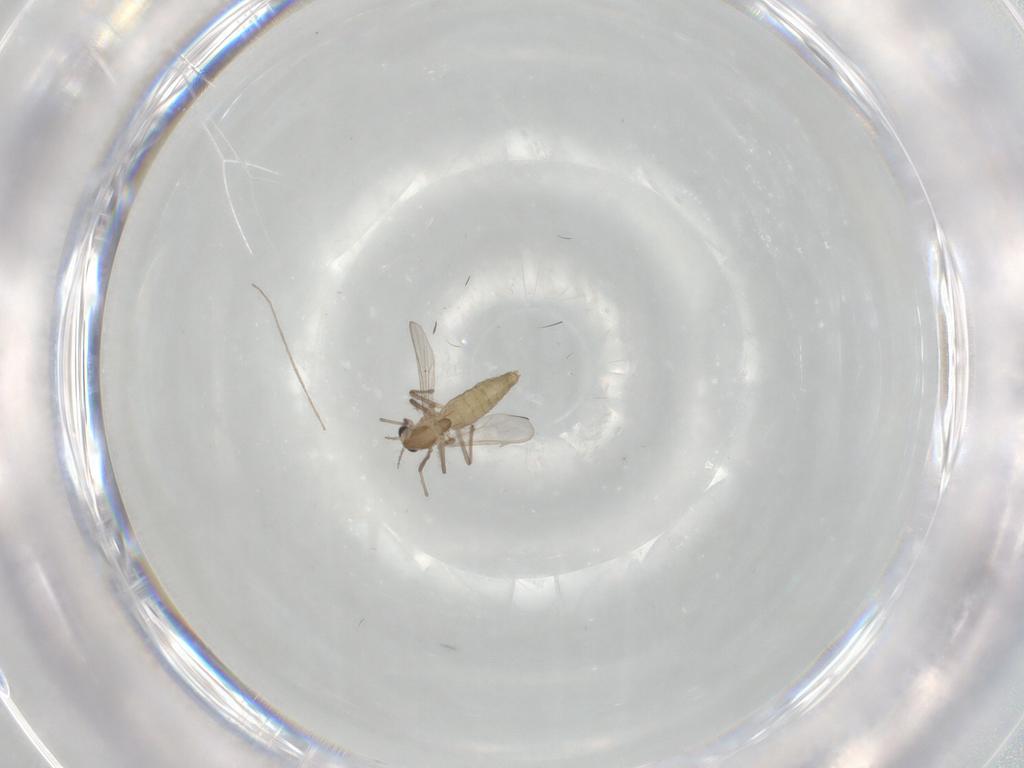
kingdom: Animalia
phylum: Arthropoda
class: Insecta
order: Diptera
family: Chironomidae
